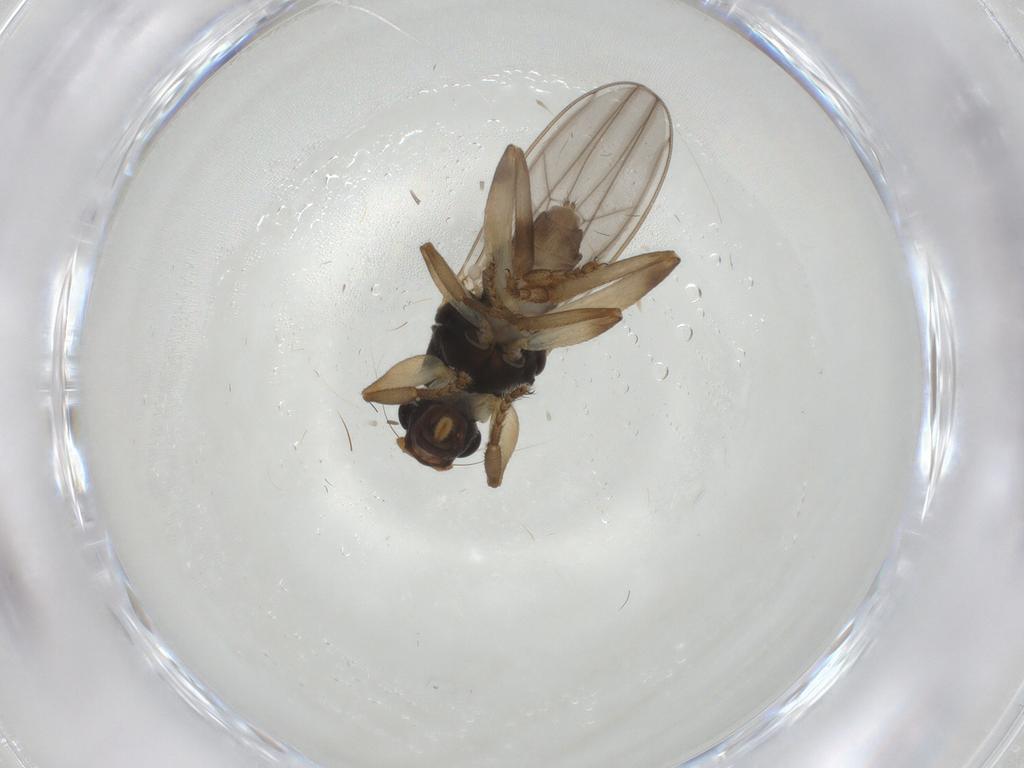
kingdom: Animalia
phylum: Arthropoda
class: Insecta
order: Diptera
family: Sphaeroceridae
